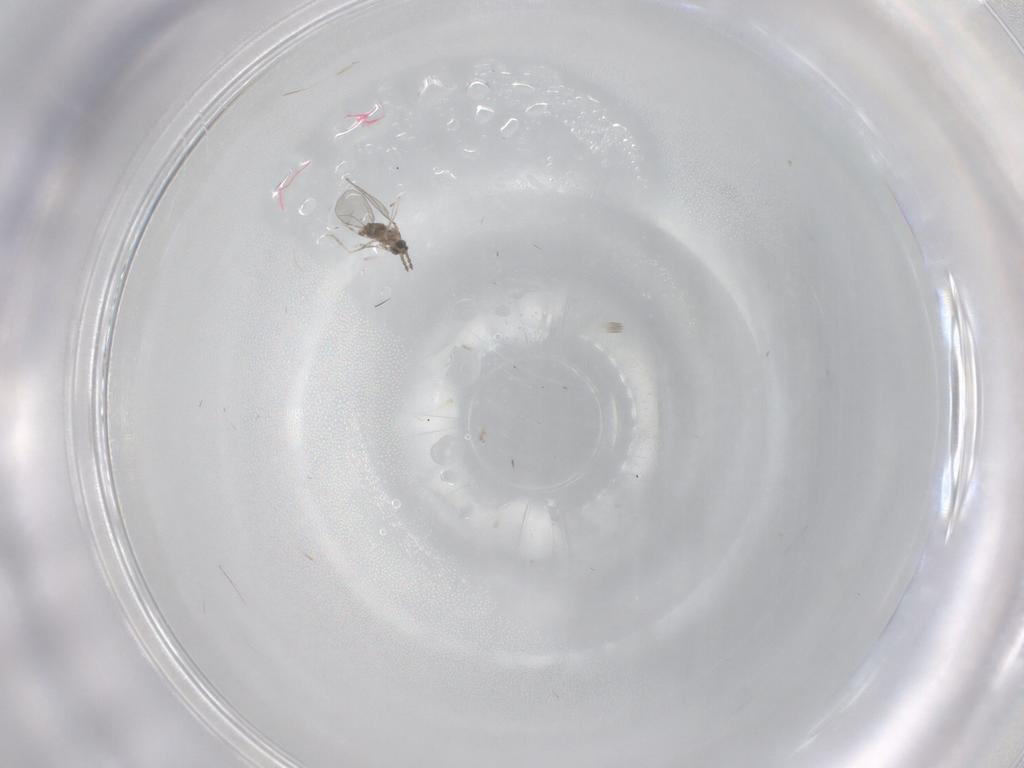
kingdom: Animalia
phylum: Arthropoda
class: Insecta
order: Diptera
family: Cecidomyiidae
